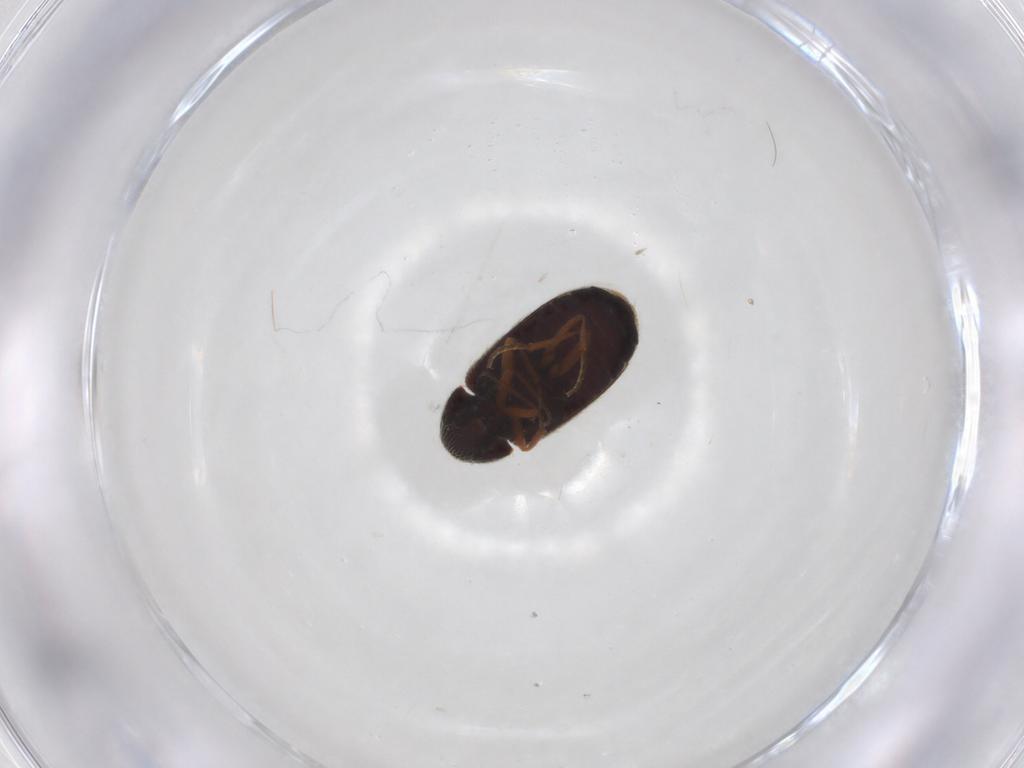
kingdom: Animalia
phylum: Arthropoda
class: Insecta
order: Coleoptera
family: Rhadalidae
